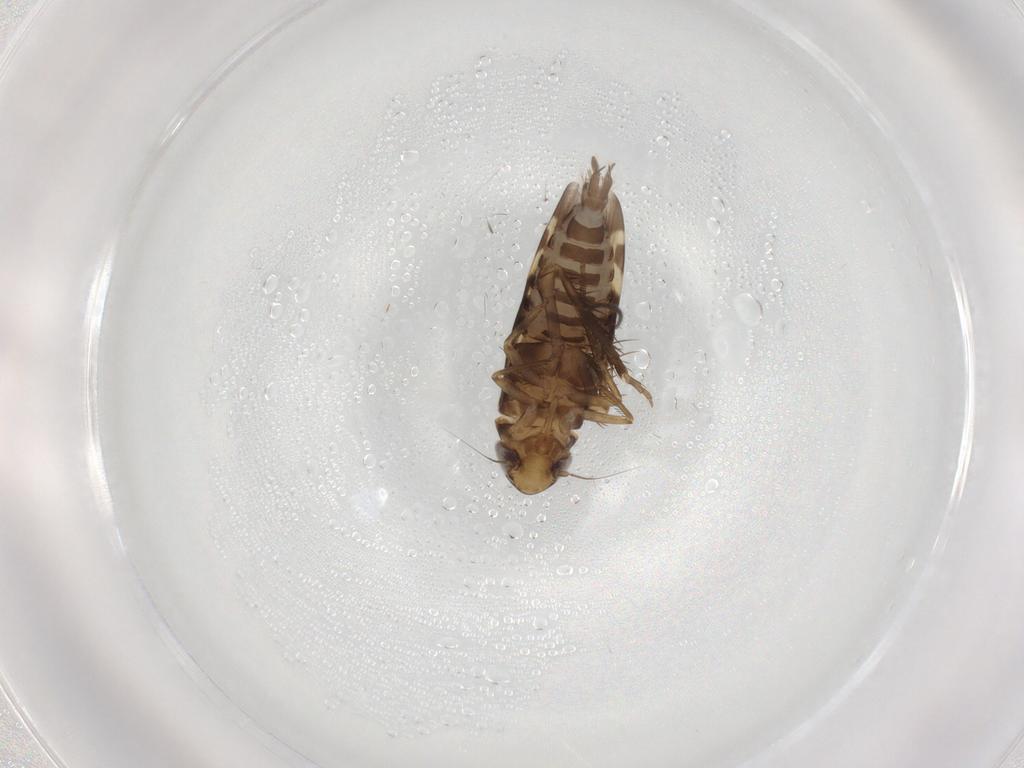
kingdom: Animalia
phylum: Arthropoda
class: Insecta
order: Hemiptera
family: Cicadellidae
